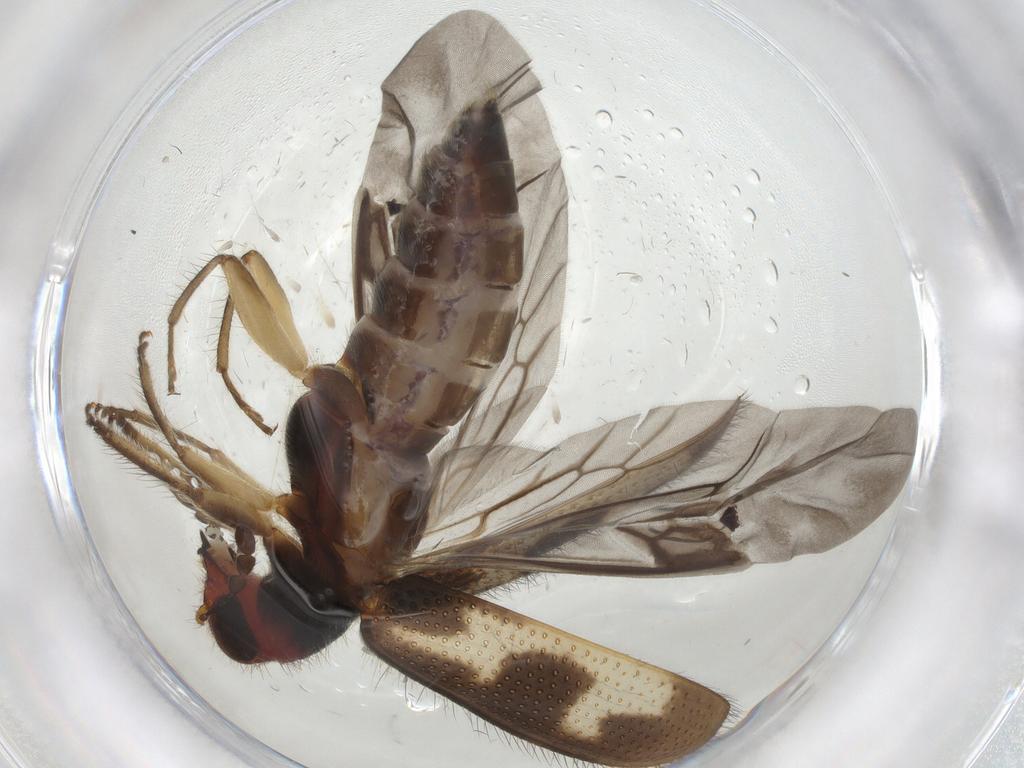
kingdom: Animalia
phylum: Arthropoda
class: Insecta
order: Coleoptera
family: Cleridae
